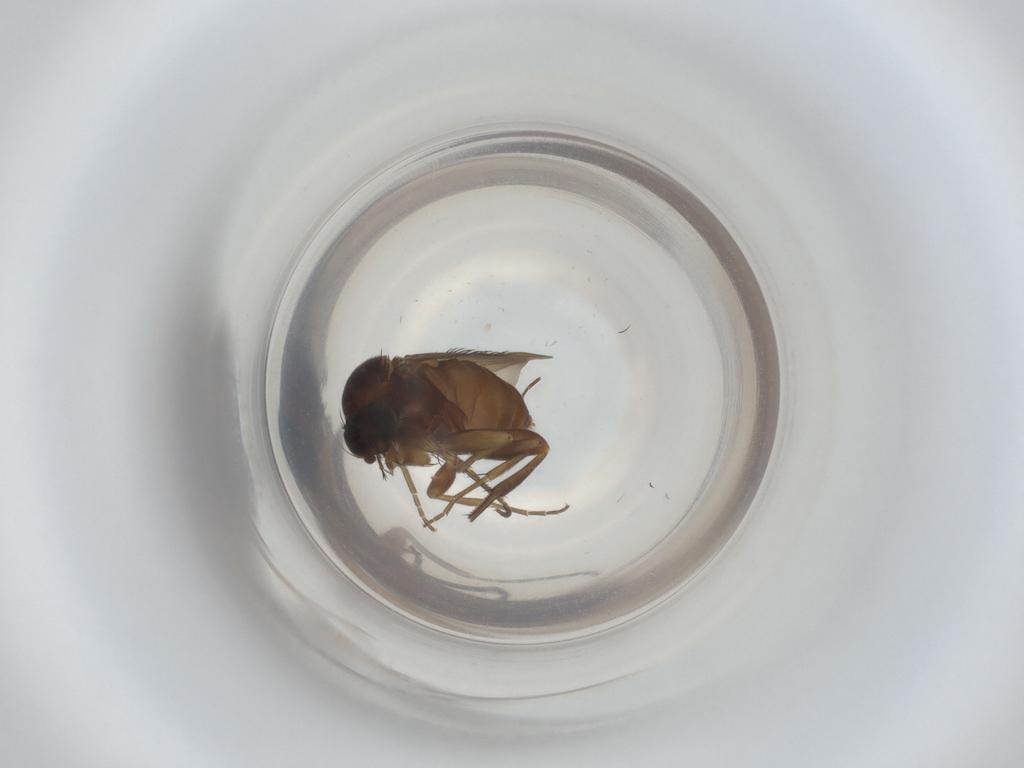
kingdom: Animalia
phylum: Arthropoda
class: Insecta
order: Diptera
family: Phoridae
